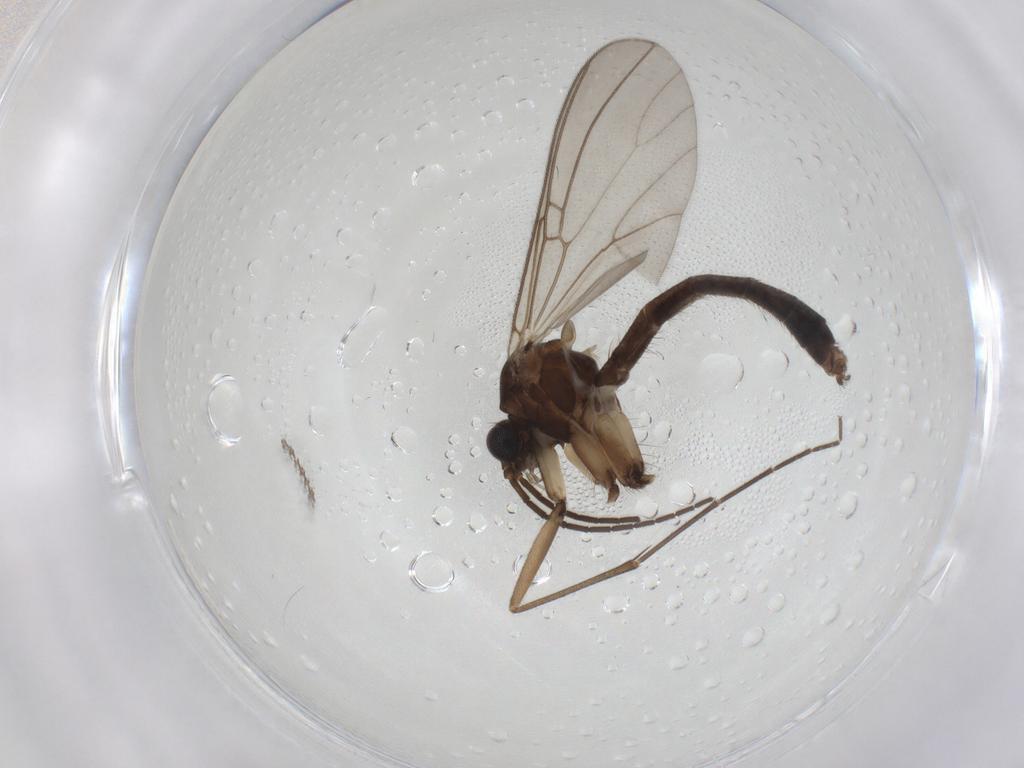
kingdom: Animalia
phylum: Arthropoda
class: Insecta
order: Diptera
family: Mycetophilidae
